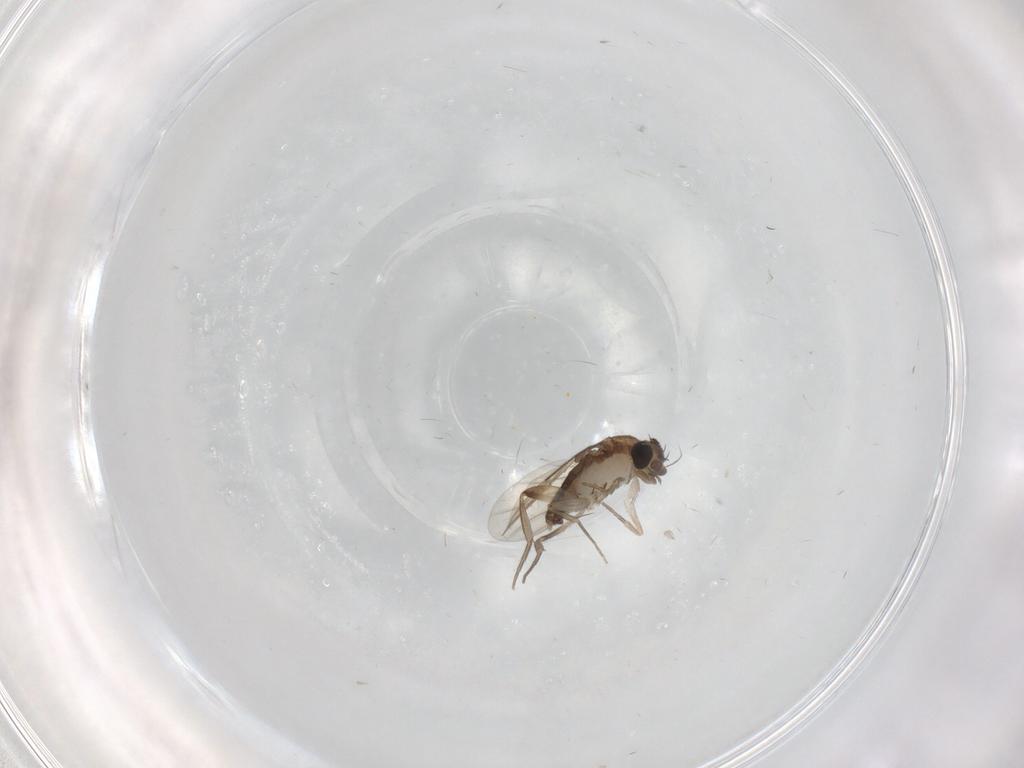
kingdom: Animalia
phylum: Arthropoda
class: Insecta
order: Diptera
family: Phoridae
